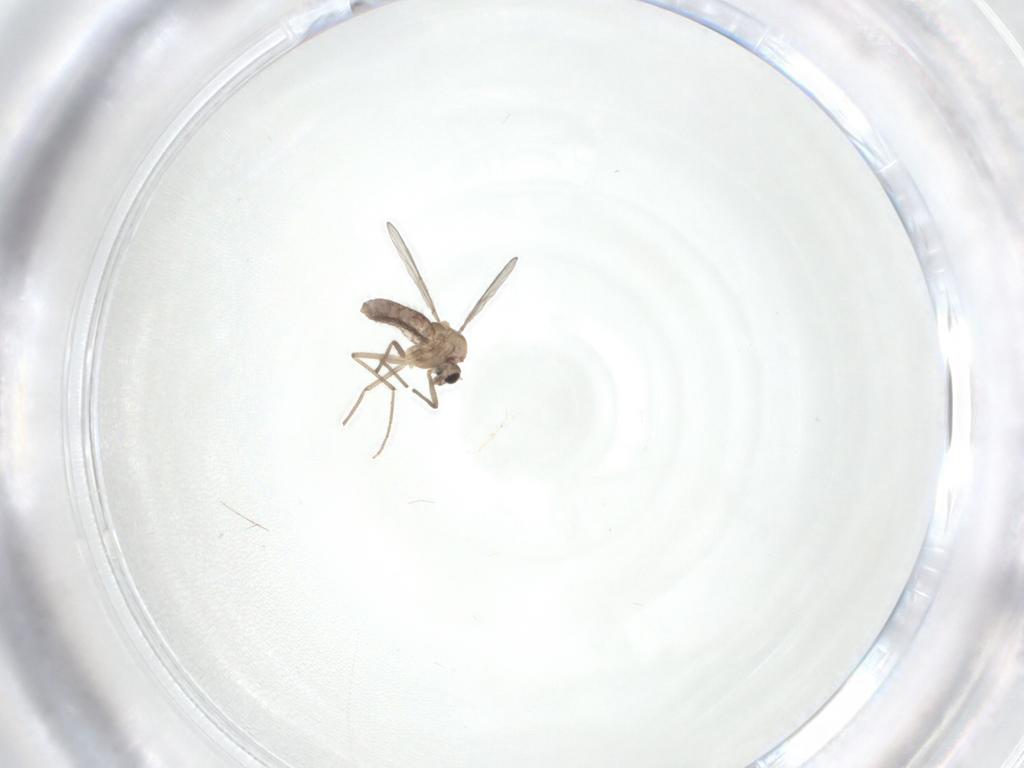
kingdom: Animalia
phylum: Arthropoda
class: Insecta
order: Diptera
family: Chironomidae
